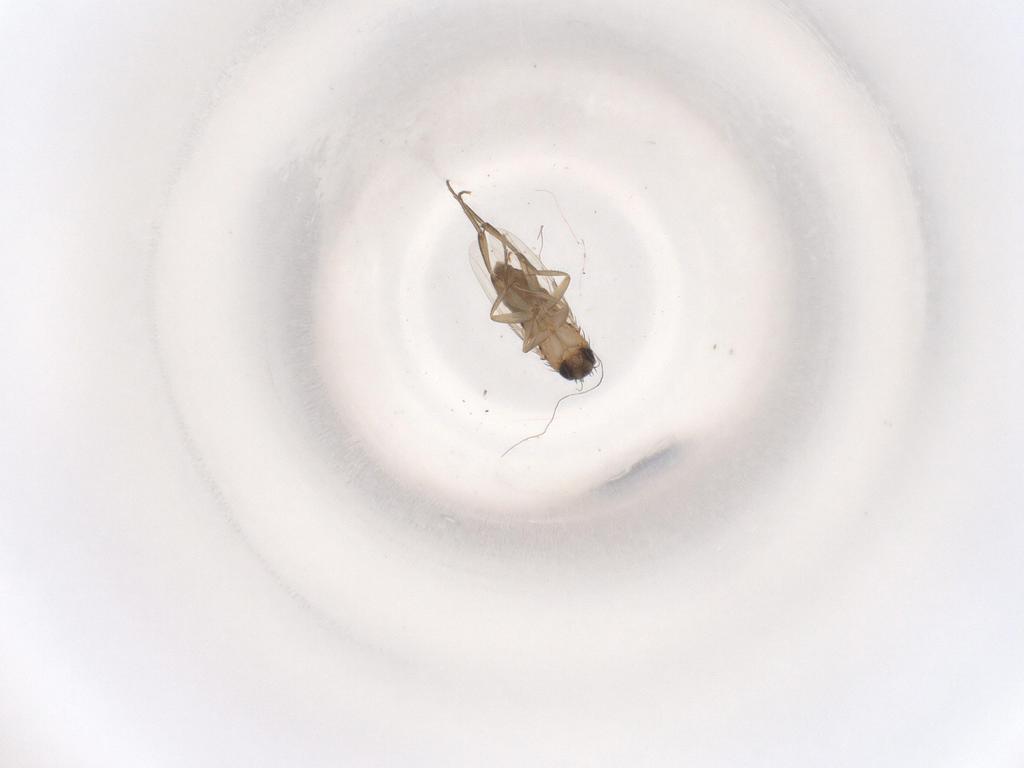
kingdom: Animalia
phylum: Arthropoda
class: Insecta
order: Diptera
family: Phoridae
